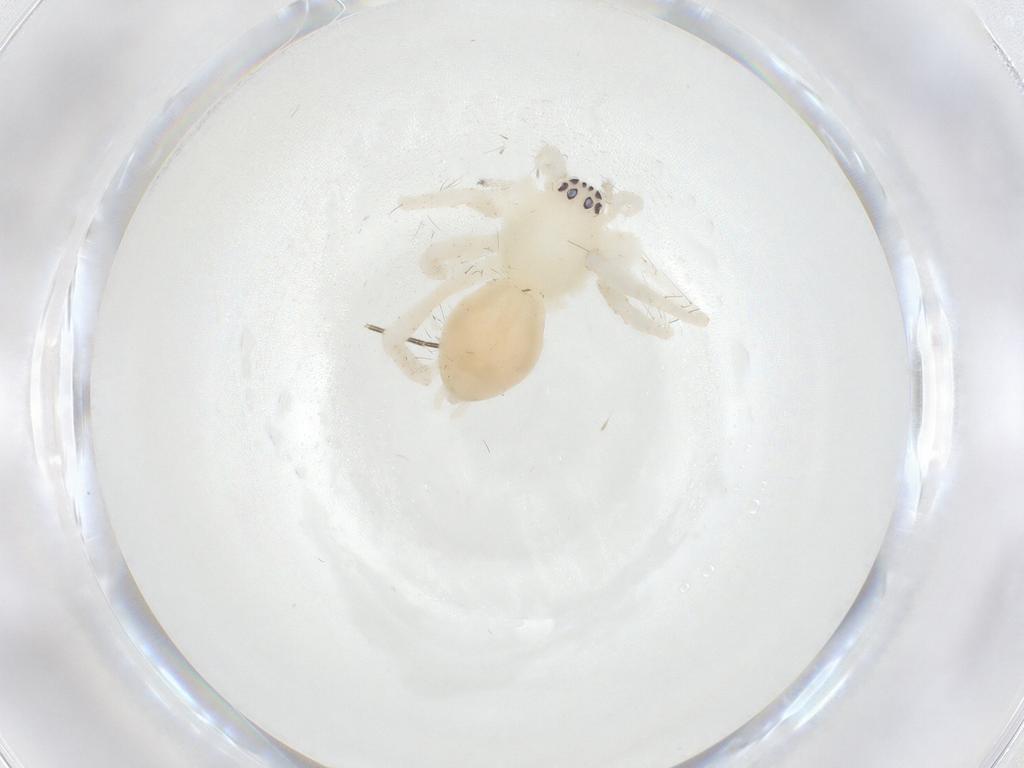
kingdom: Animalia
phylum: Arthropoda
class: Arachnida
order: Araneae
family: Anyphaenidae
